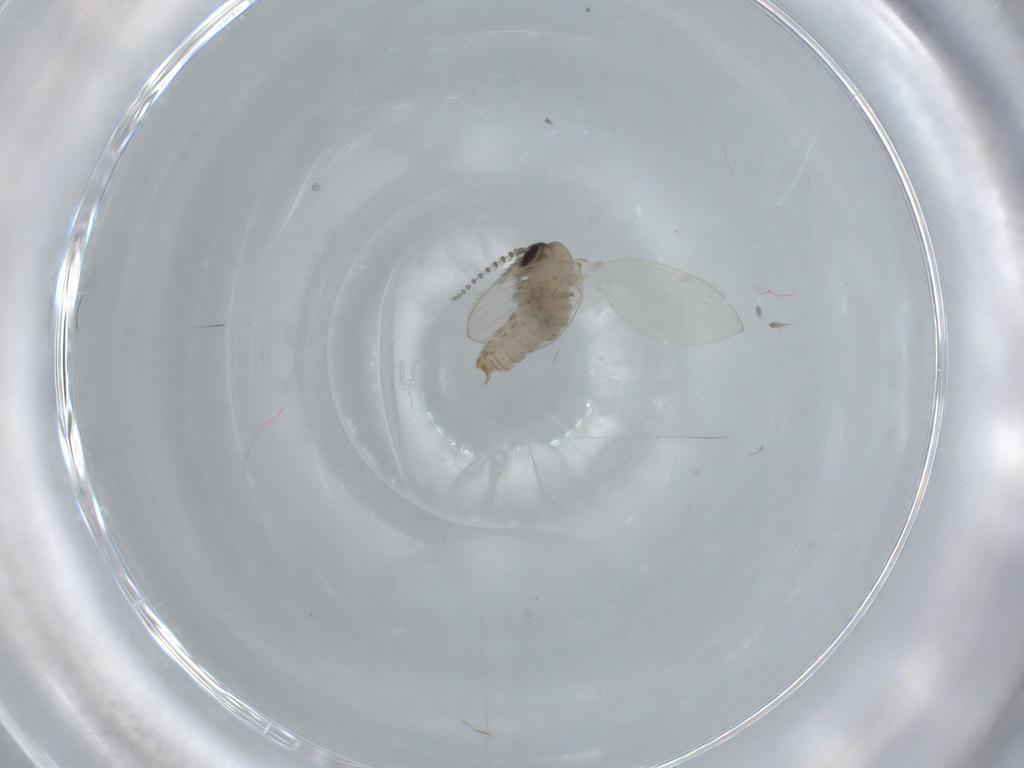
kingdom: Animalia
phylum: Arthropoda
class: Insecta
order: Diptera
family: Psychodidae
